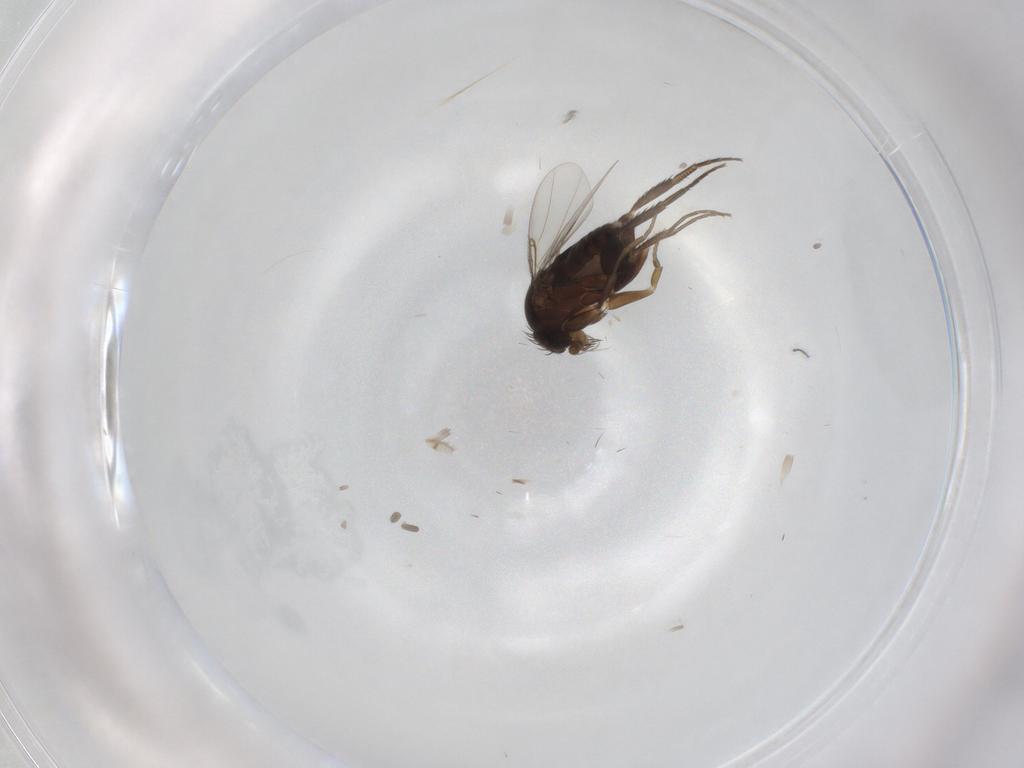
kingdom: Animalia
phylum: Arthropoda
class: Insecta
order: Diptera
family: Phoridae
